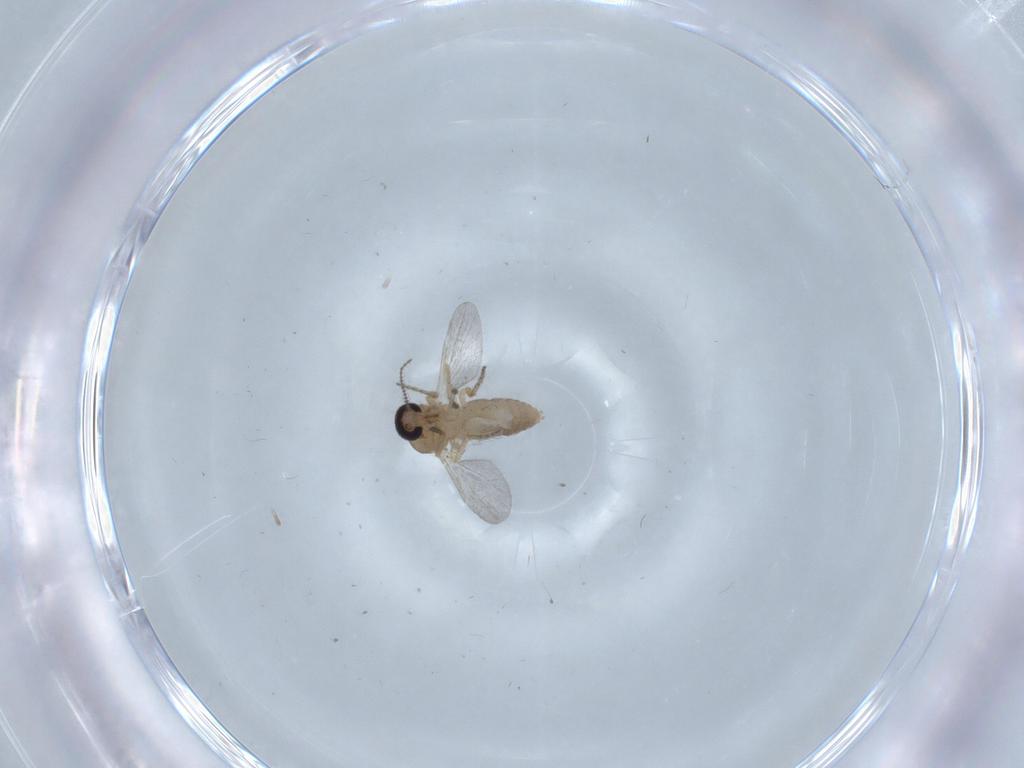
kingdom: Animalia
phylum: Arthropoda
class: Insecta
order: Diptera
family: Ceratopogonidae
